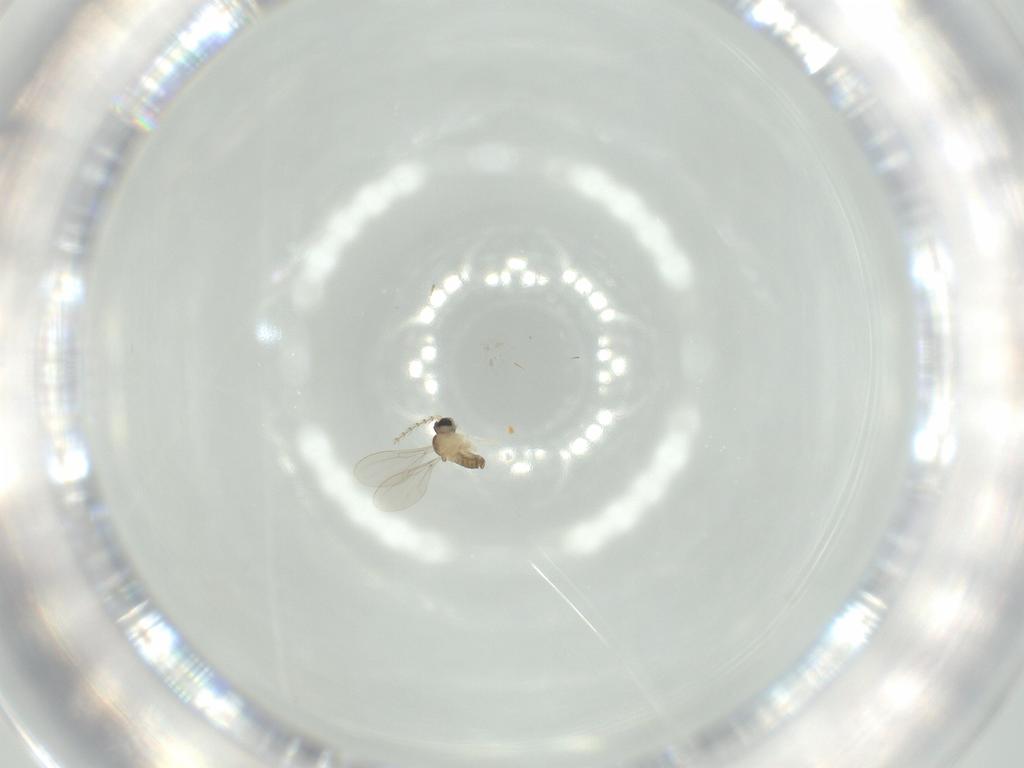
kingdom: Animalia
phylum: Arthropoda
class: Insecta
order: Diptera
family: Cecidomyiidae
